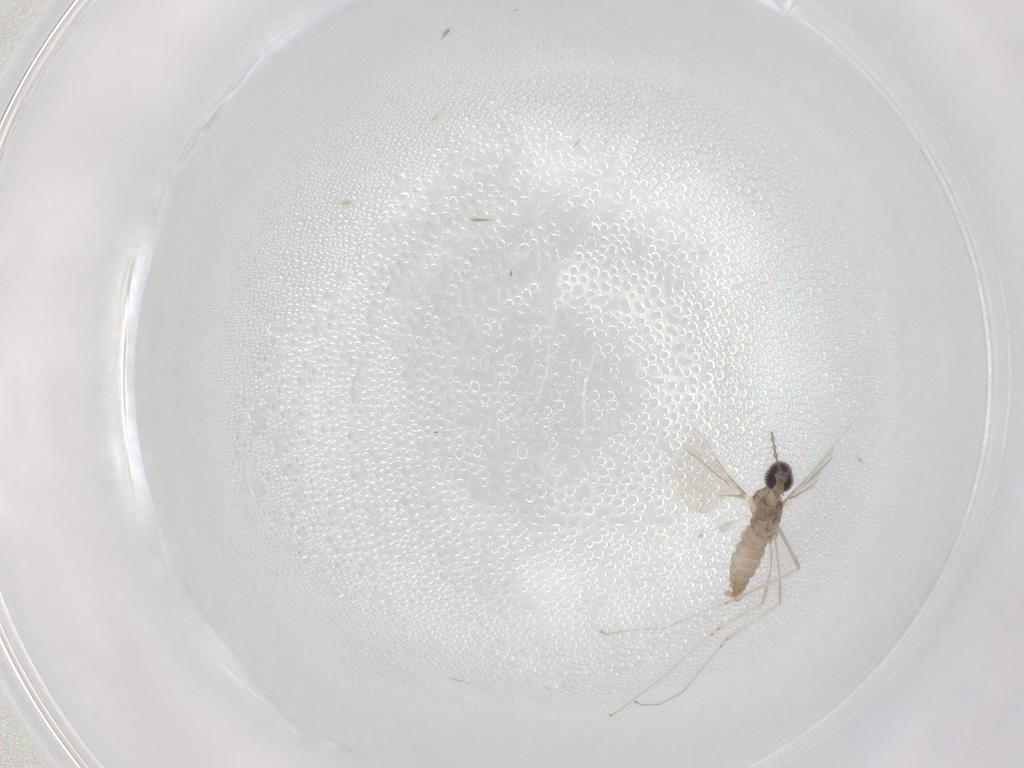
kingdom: Animalia
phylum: Arthropoda
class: Insecta
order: Diptera
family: Cecidomyiidae
